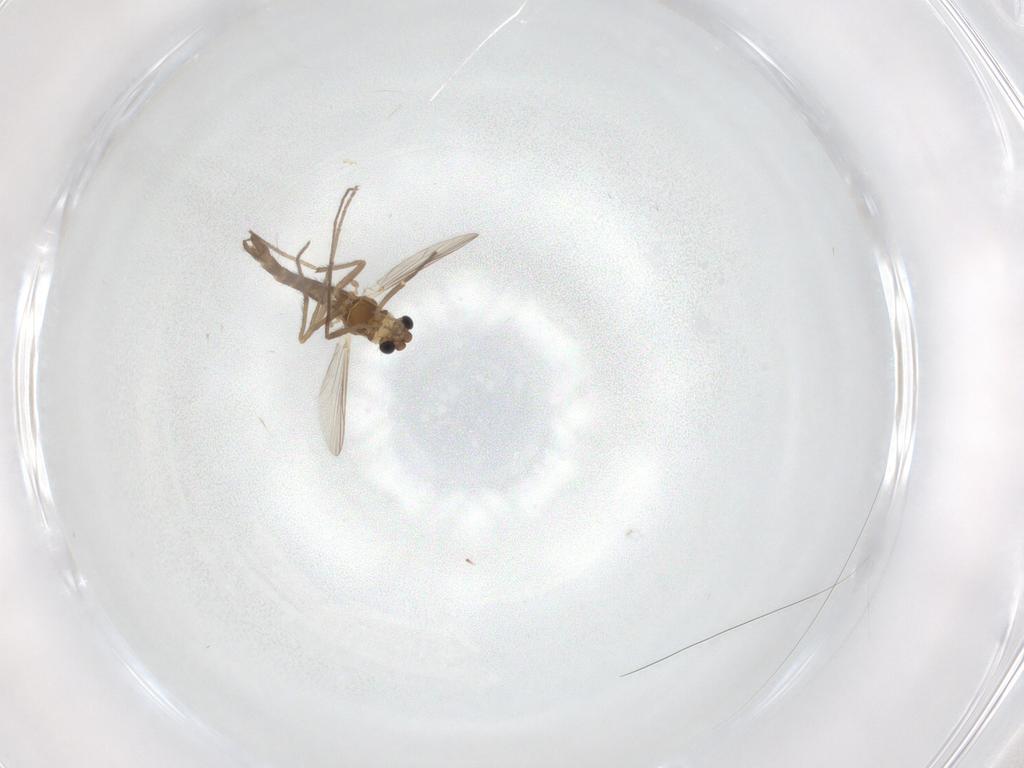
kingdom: Animalia
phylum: Arthropoda
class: Insecta
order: Diptera
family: Chironomidae
